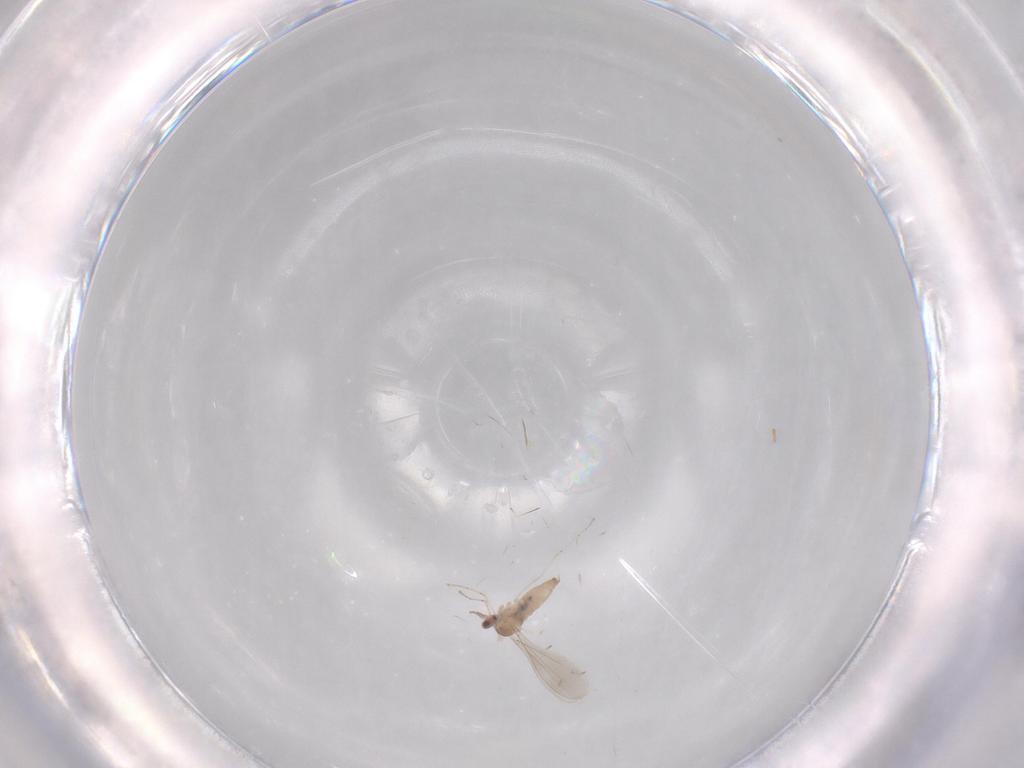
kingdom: Animalia
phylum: Arthropoda
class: Insecta
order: Diptera
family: Cecidomyiidae
